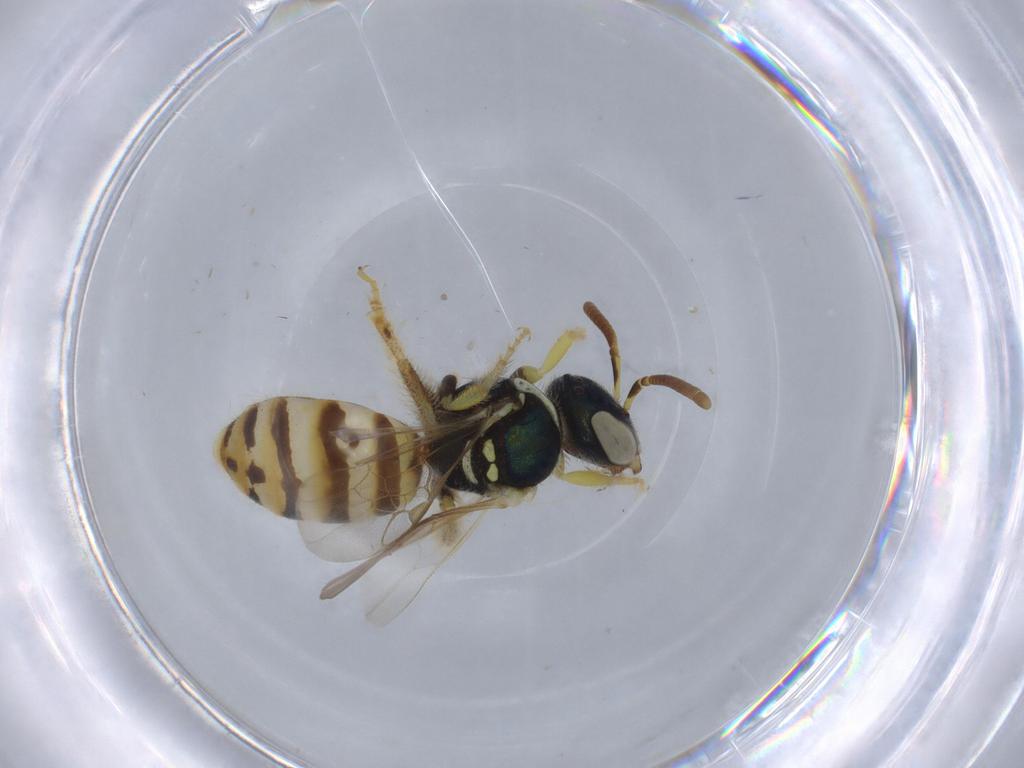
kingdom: Animalia
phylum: Arthropoda
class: Insecta
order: Hymenoptera
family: Halictidae
